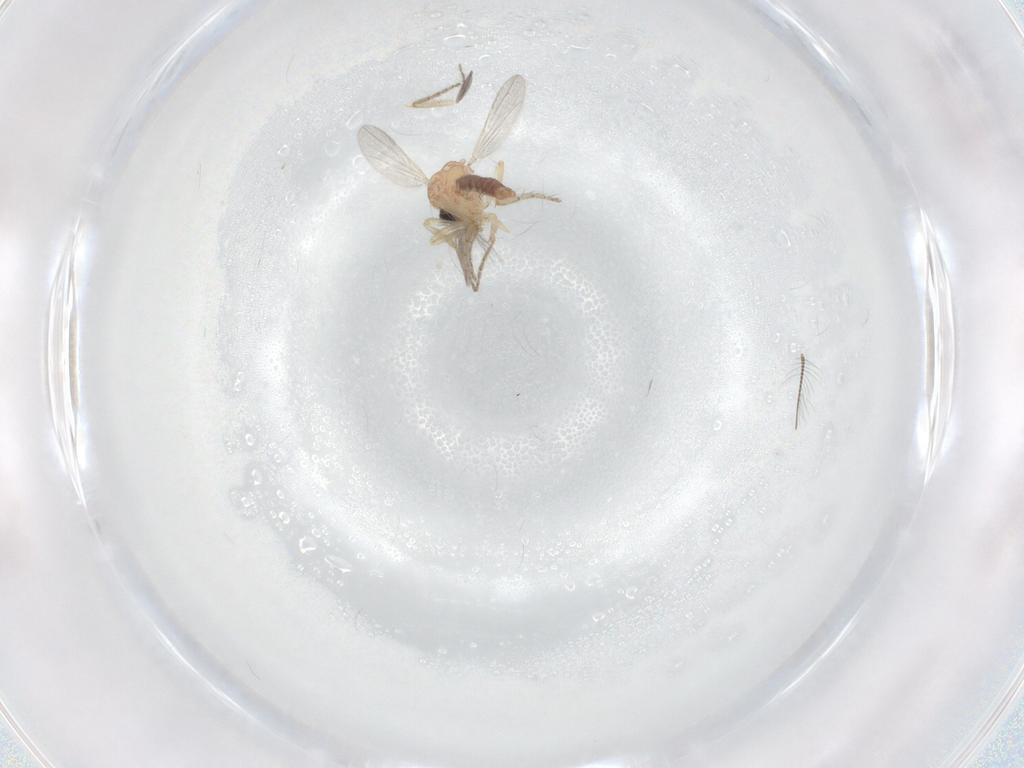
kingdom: Animalia
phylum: Arthropoda
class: Insecta
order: Diptera
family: Ceratopogonidae
